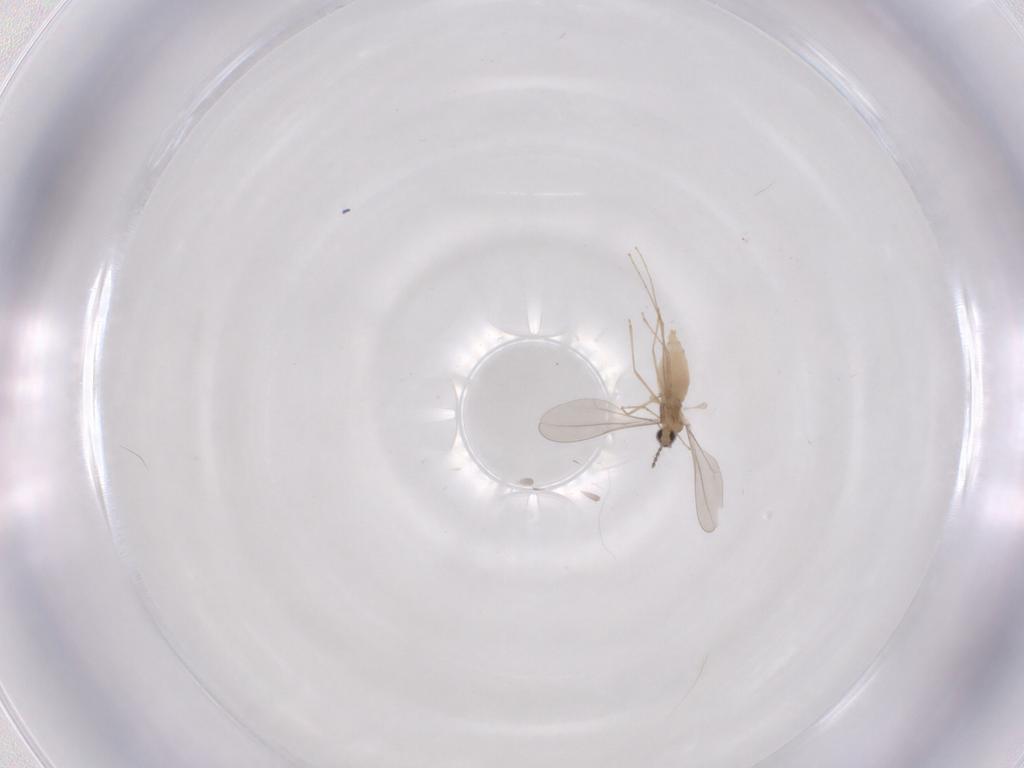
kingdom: Animalia
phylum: Arthropoda
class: Insecta
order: Diptera
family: Cecidomyiidae
